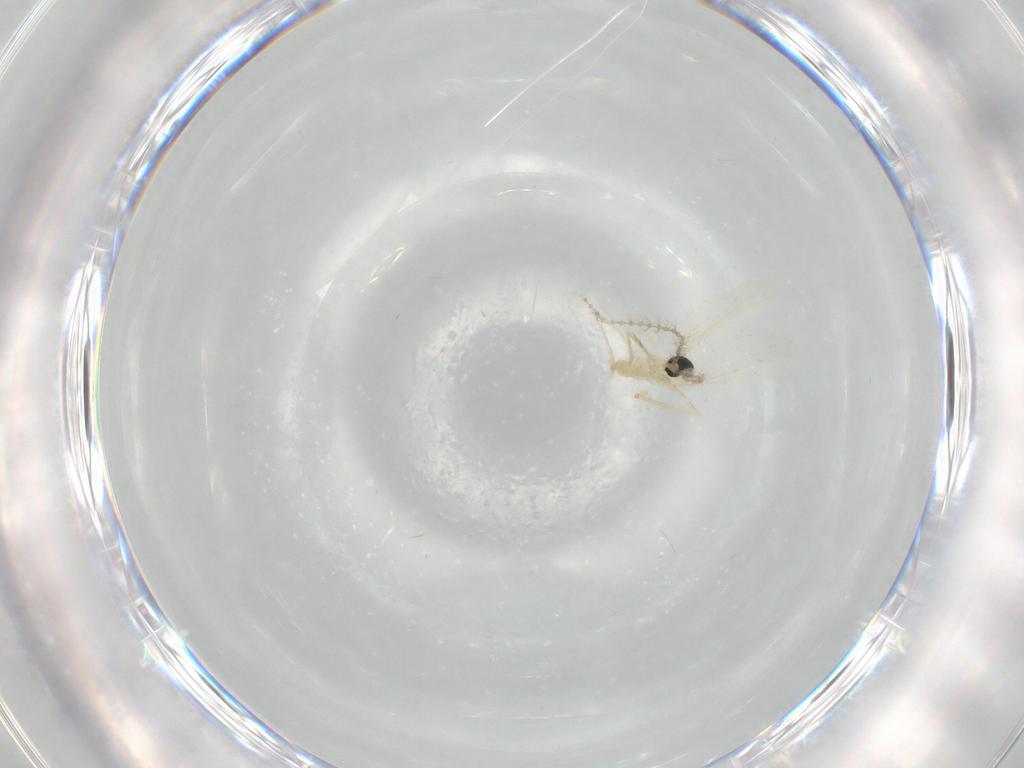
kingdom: Animalia
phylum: Arthropoda
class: Insecta
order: Diptera
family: Cecidomyiidae
